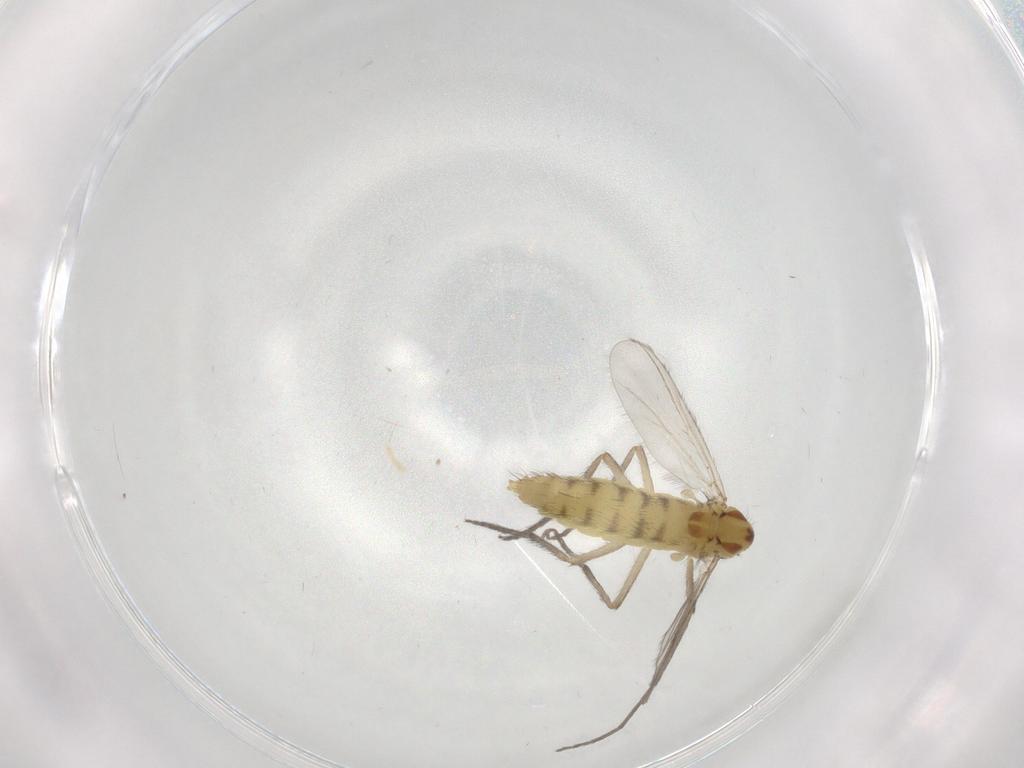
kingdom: Animalia
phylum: Arthropoda
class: Insecta
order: Diptera
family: Chironomidae
